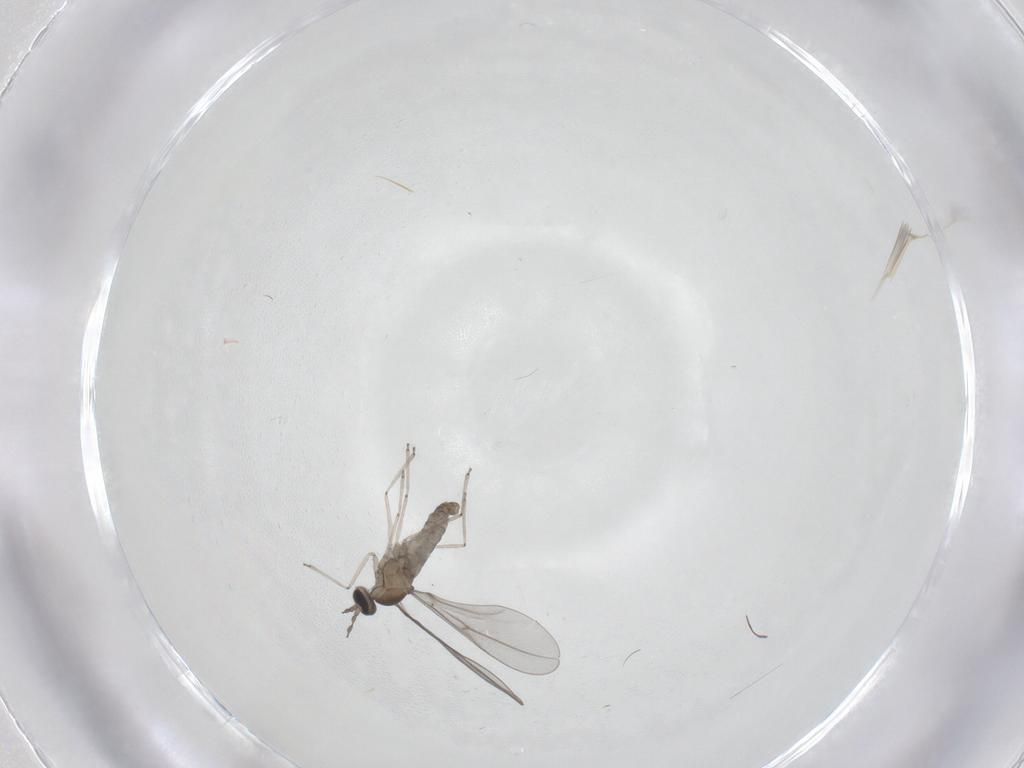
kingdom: Animalia
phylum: Arthropoda
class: Insecta
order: Diptera
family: Cecidomyiidae
